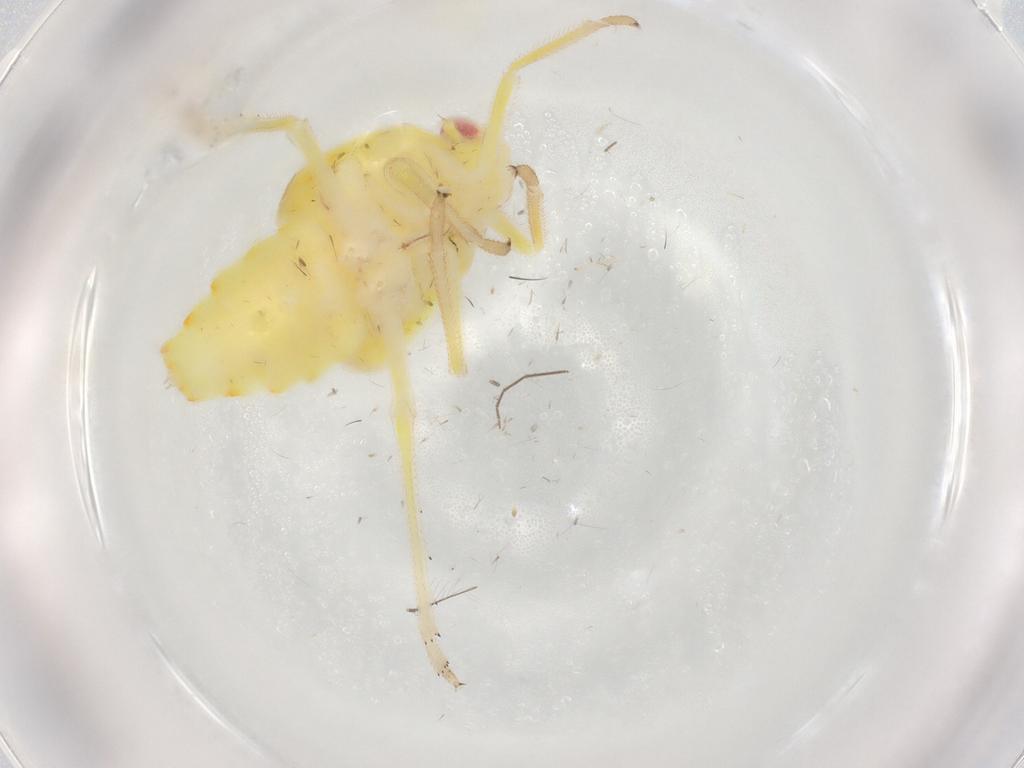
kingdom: Animalia
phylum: Arthropoda
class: Insecta
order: Hemiptera
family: Tropiduchidae
